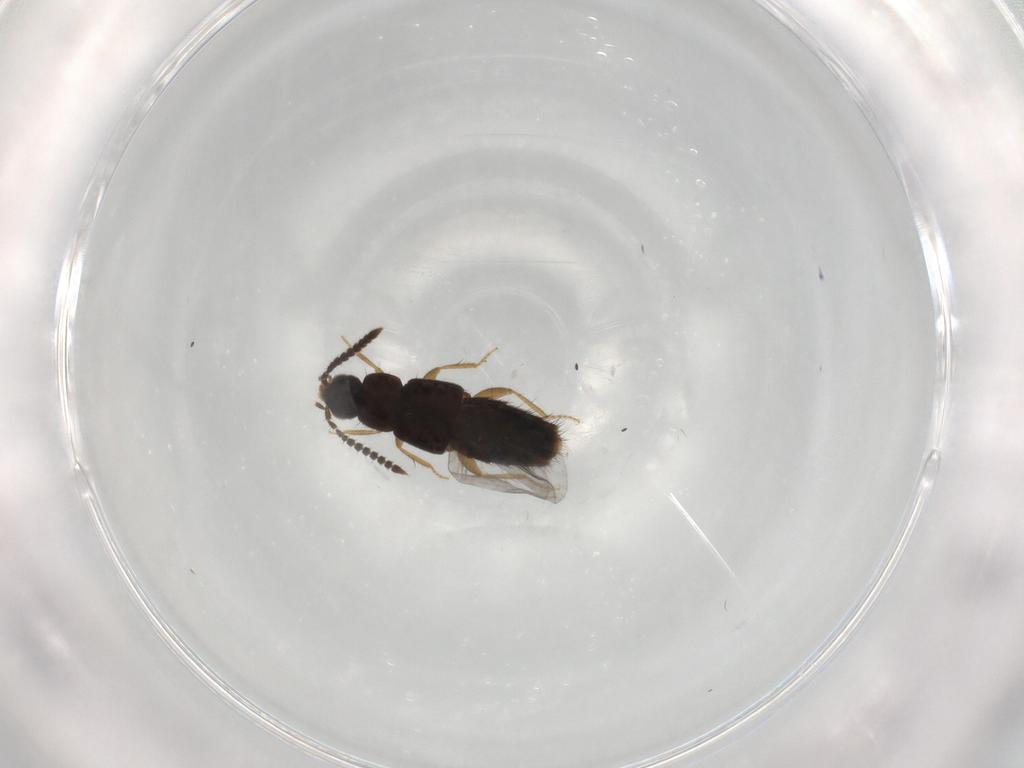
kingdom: Animalia
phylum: Arthropoda
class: Insecta
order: Coleoptera
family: Staphylinidae
